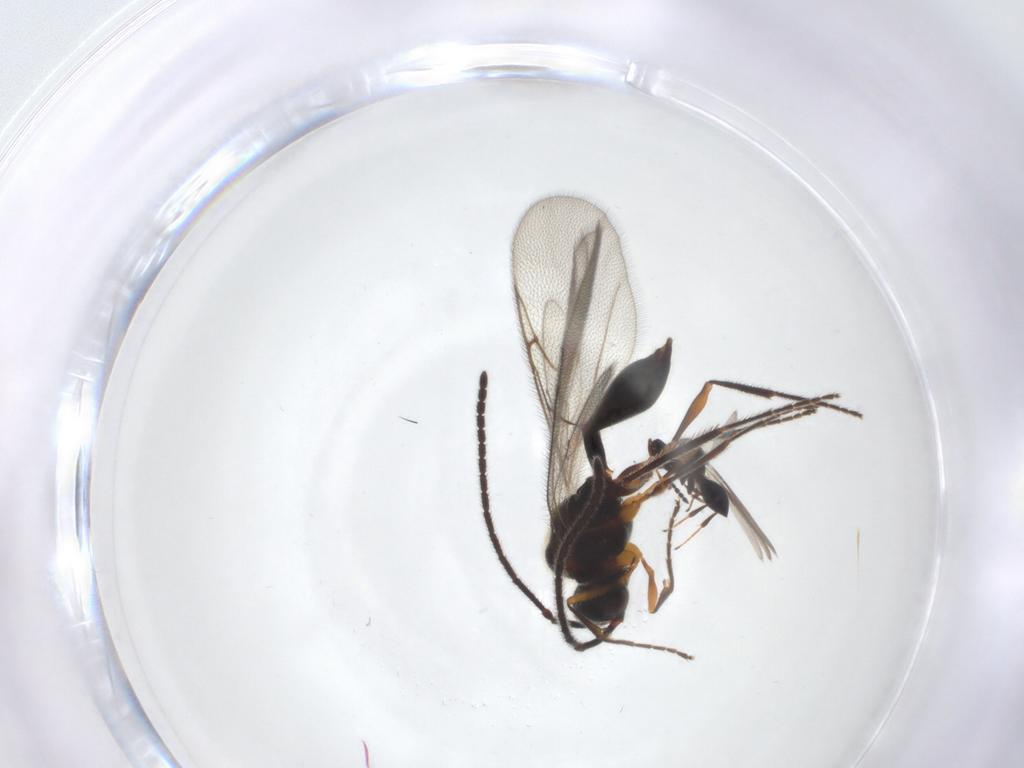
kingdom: Animalia
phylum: Arthropoda
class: Insecta
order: Hymenoptera
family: Platygastridae
